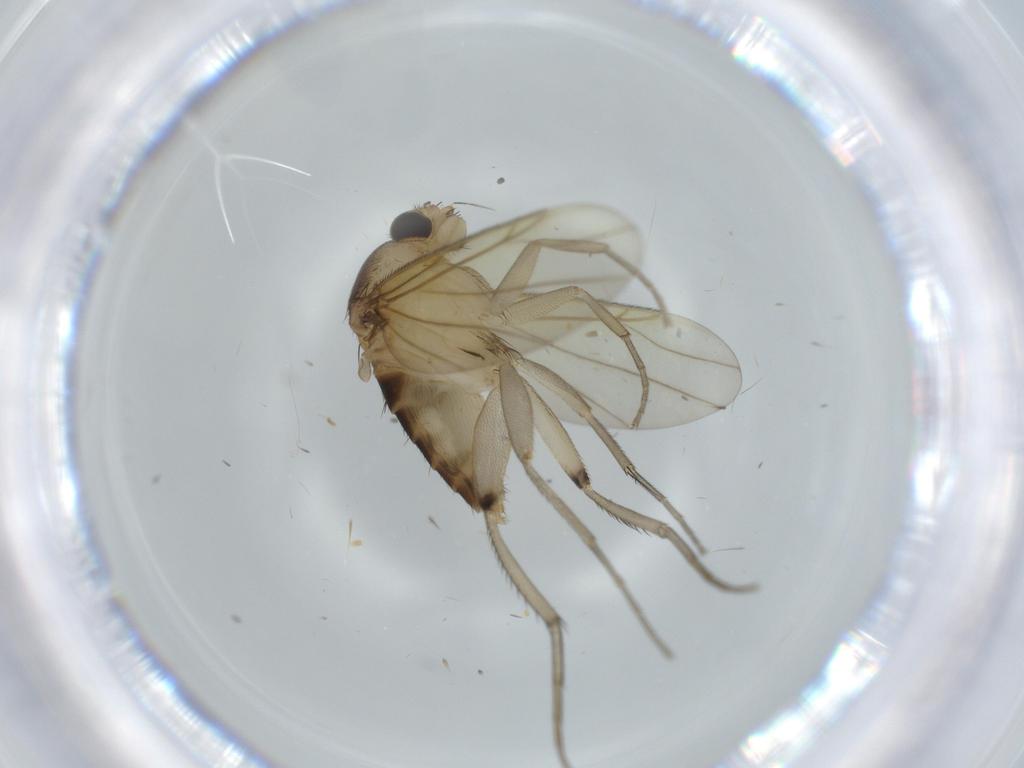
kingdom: Animalia
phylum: Arthropoda
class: Insecta
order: Diptera
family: Cecidomyiidae
